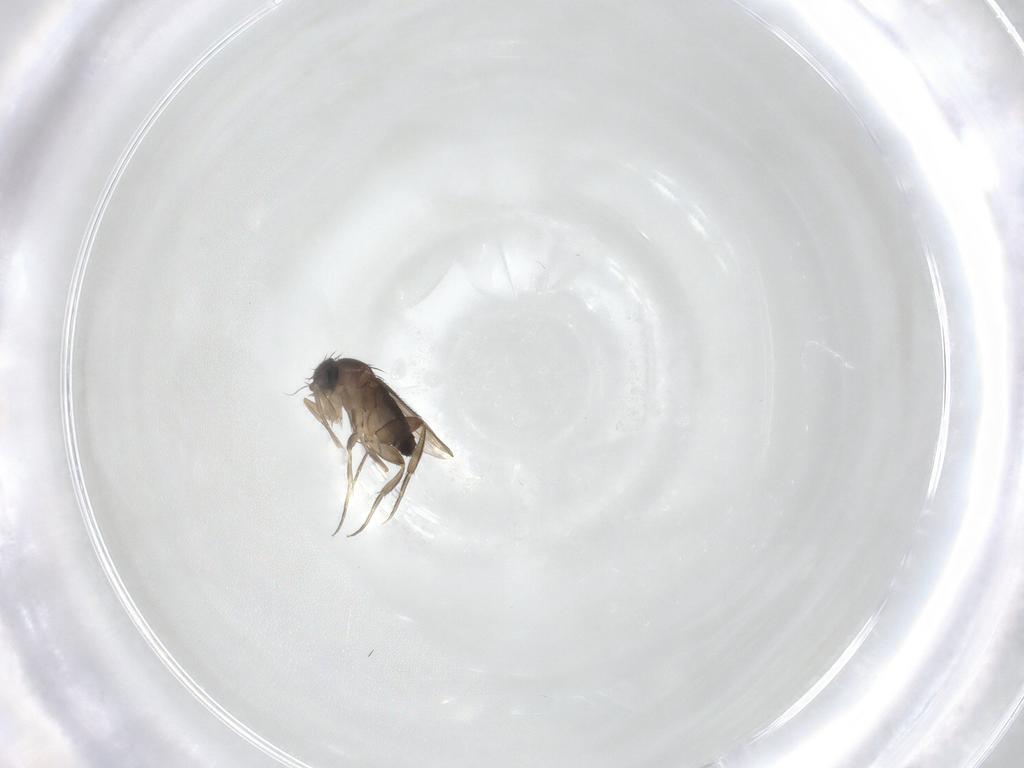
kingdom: Animalia
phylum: Arthropoda
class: Insecta
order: Diptera
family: Phoridae
